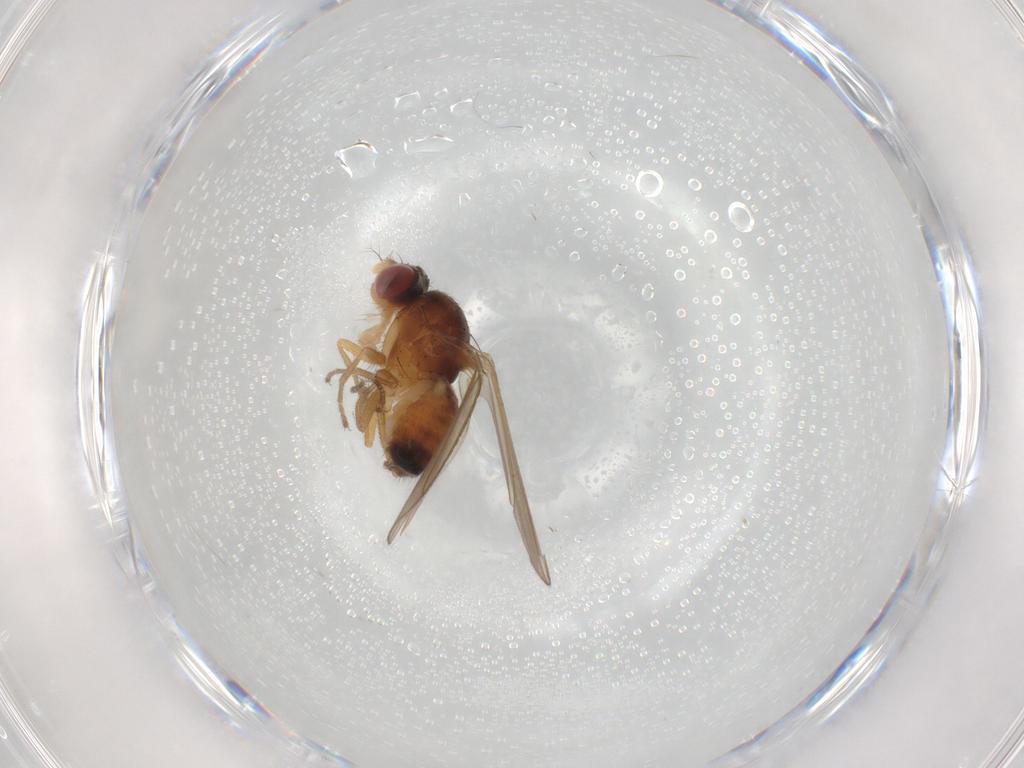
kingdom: Animalia
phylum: Arthropoda
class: Insecta
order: Diptera
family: Drosophilidae
